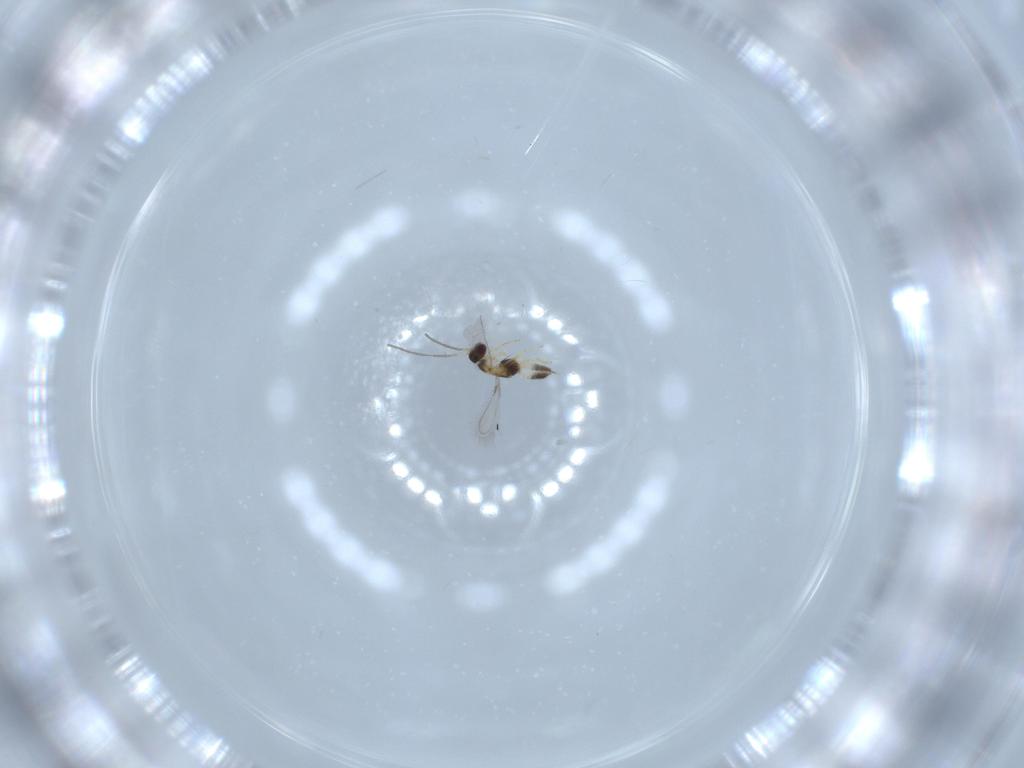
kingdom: Animalia
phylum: Arthropoda
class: Insecta
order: Hymenoptera
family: Mymaridae
